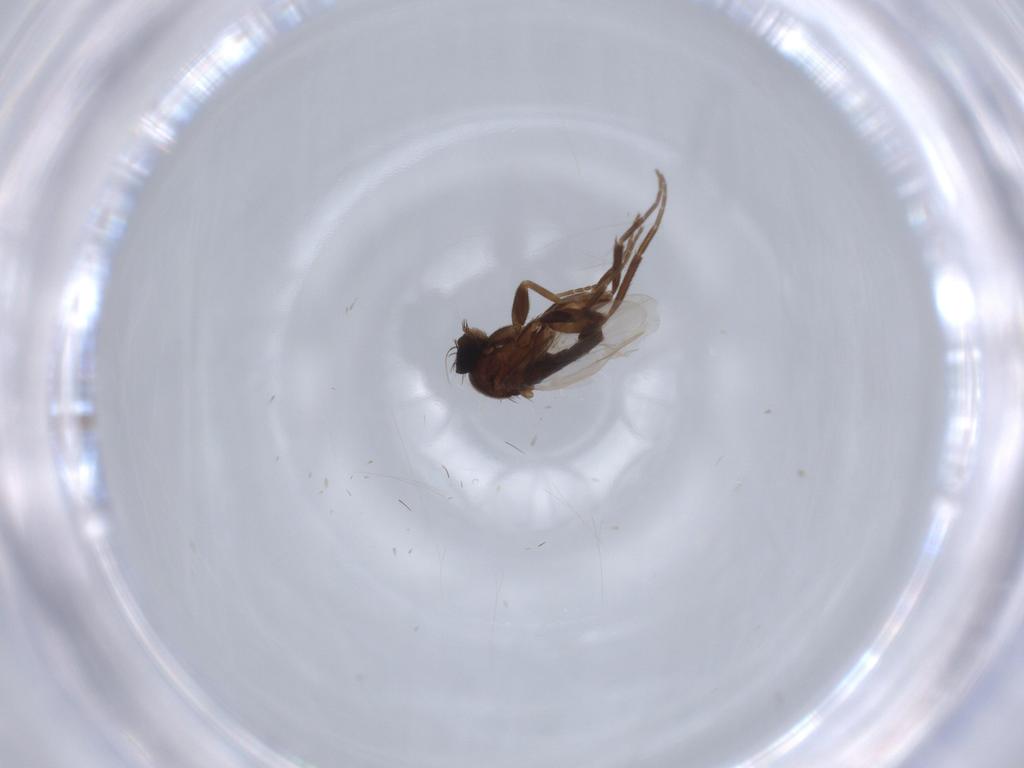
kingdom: Animalia
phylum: Arthropoda
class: Insecta
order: Diptera
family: Phoridae
